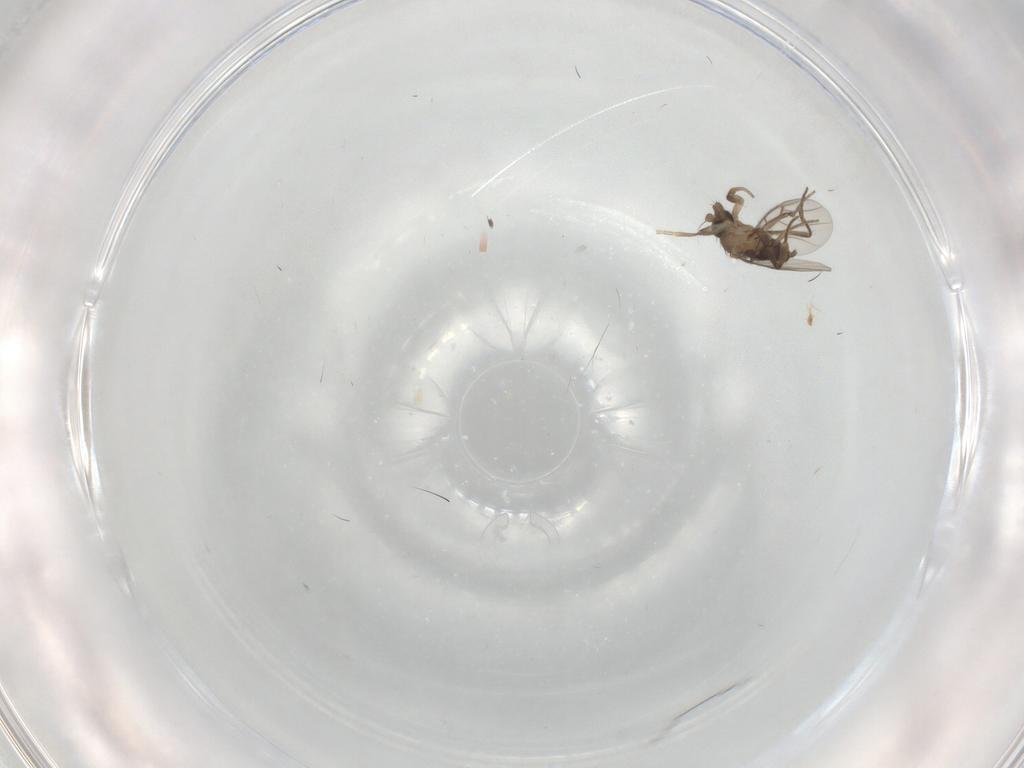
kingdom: Animalia
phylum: Arthropoda
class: Insecta
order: Diptera
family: Phoridae
